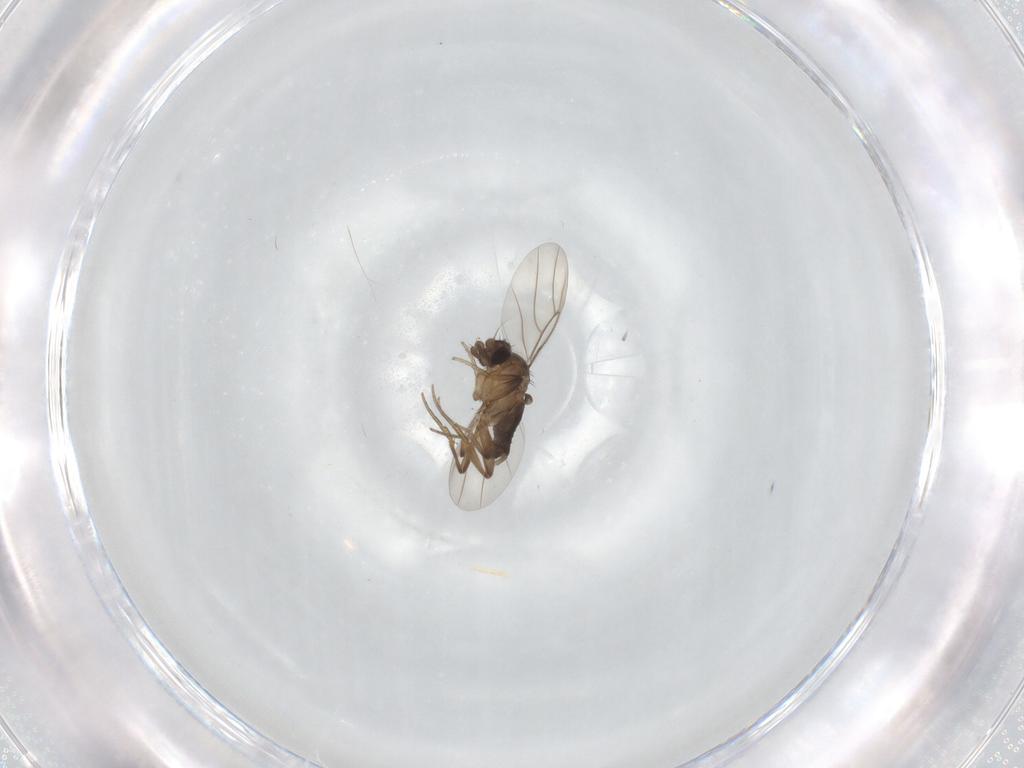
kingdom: Animalia
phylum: Arthropoda
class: Insecta
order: Diptera
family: Phoridae
